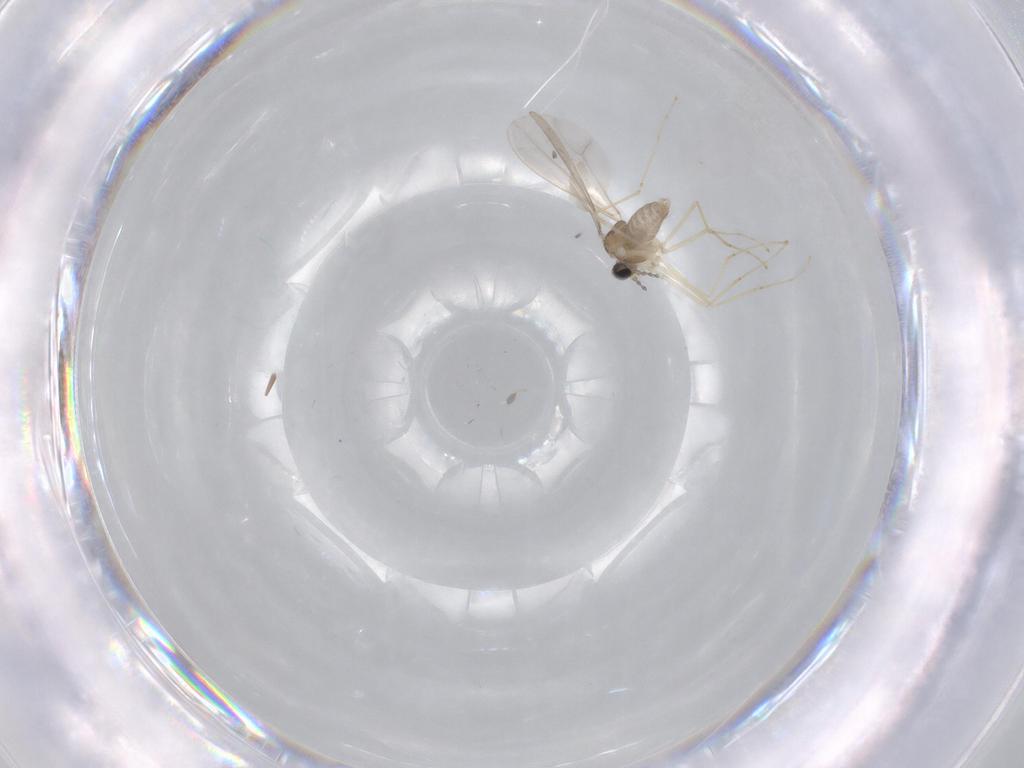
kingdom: Animalia
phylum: Arthropoda
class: Insecta
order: Diptera
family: Cecidomyiidae
